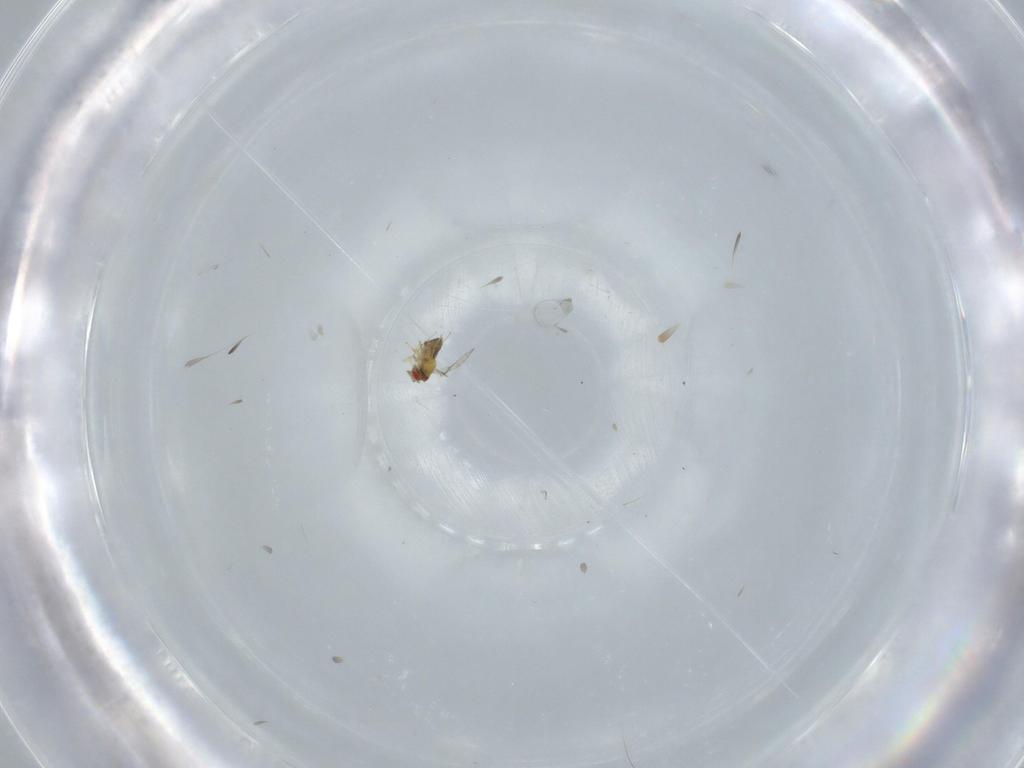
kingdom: Animalia
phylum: Arthropoda
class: Insecta
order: Hymenoptera
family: Trichogrammatidae
